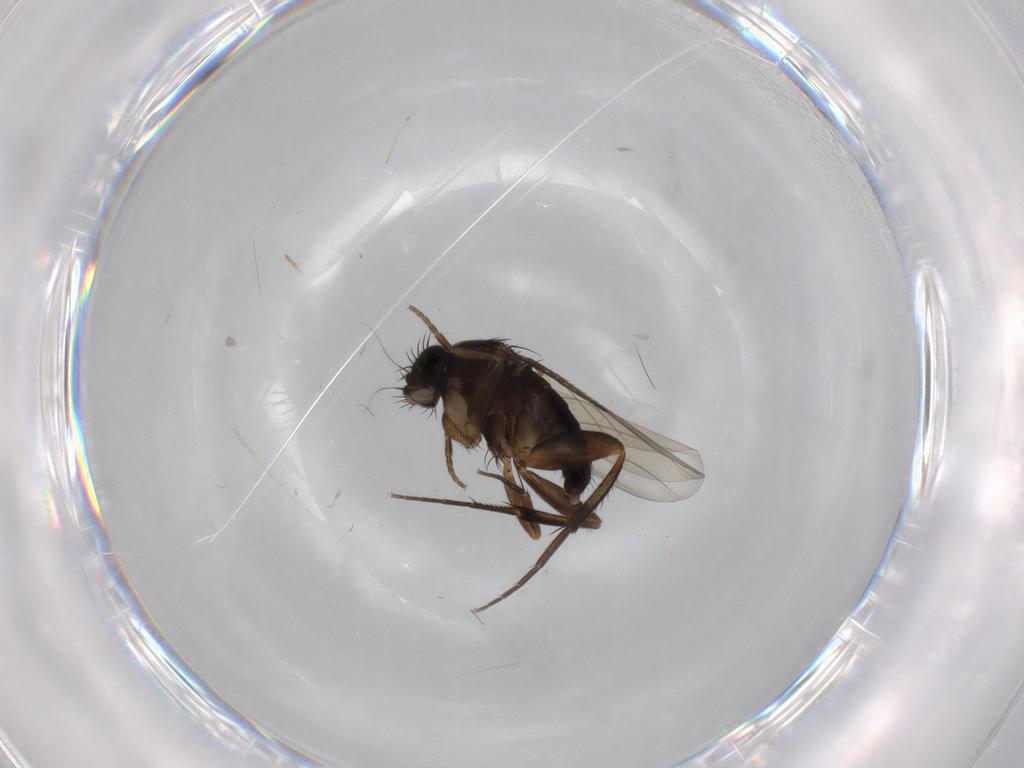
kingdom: Animalia
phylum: Arthropoda
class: Insecta
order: Diptera
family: Phoridae
